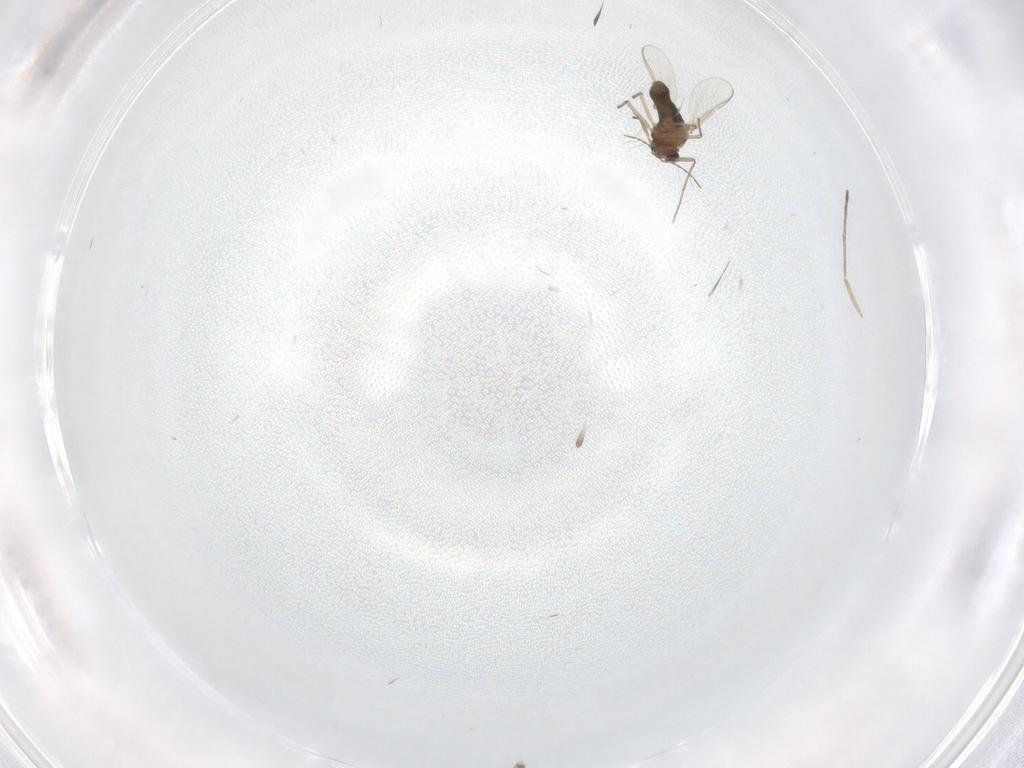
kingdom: Animalia
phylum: Arthropoda
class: Insecta
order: Diptera
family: Chironomidae
